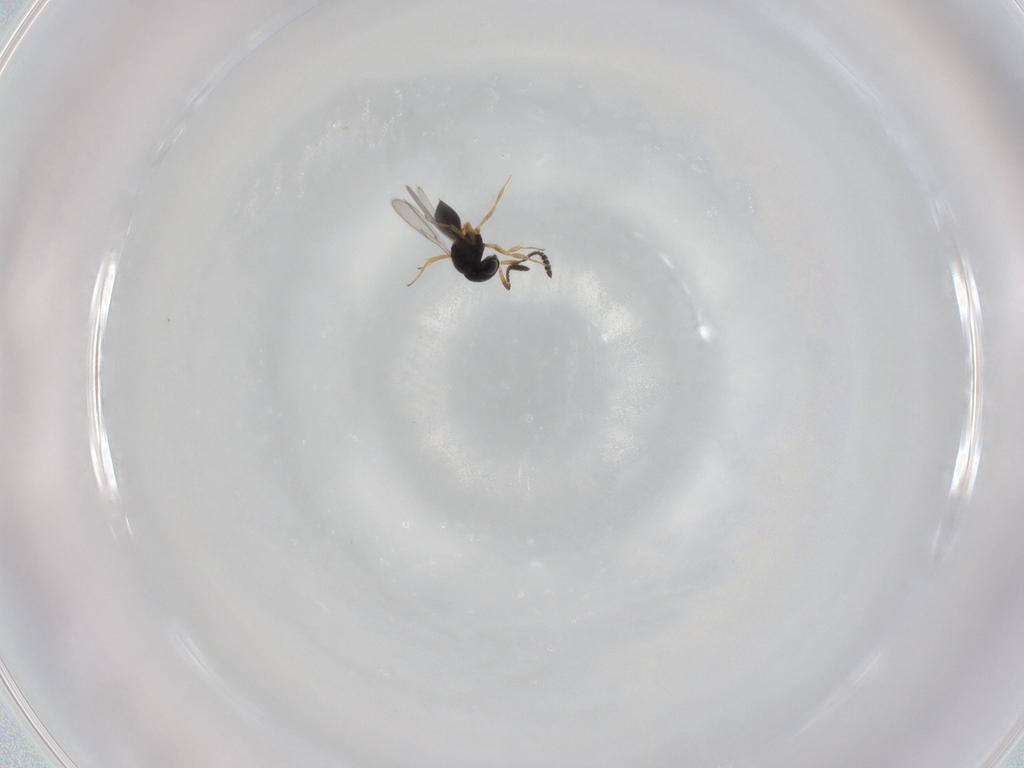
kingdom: Animalia
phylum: Arthropoda
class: Insecta
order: Hymenoptera
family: Scelionidae
